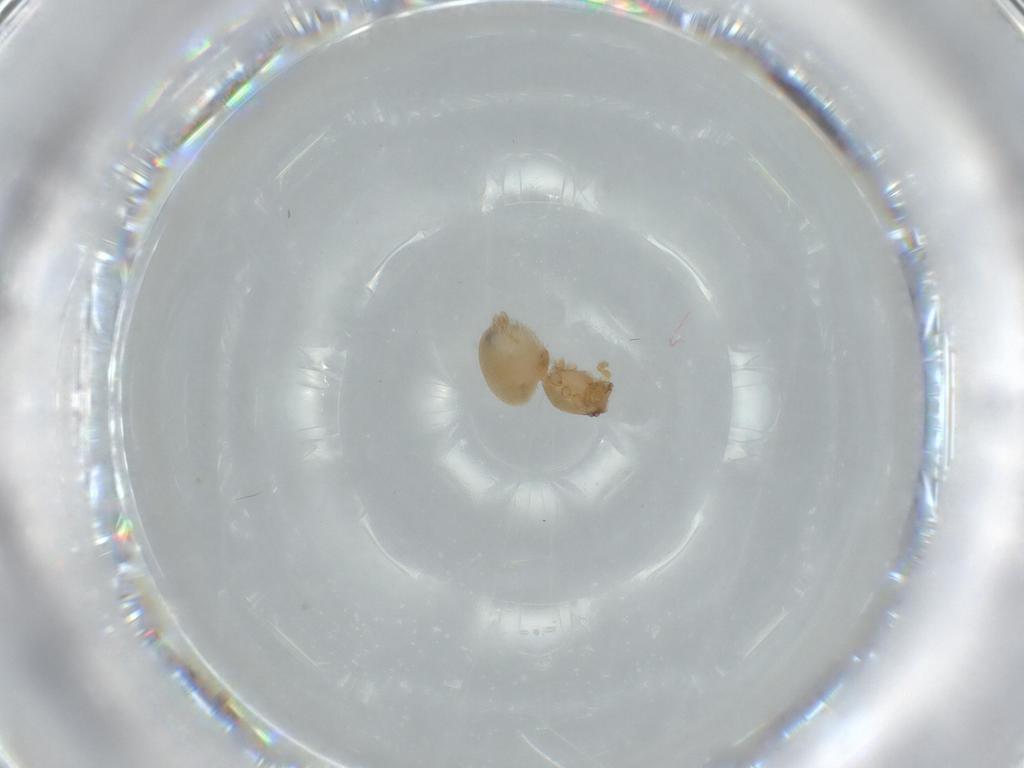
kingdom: Animalia
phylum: Arthropoda
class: Arachnida
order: Araneae
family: Oonopidae
